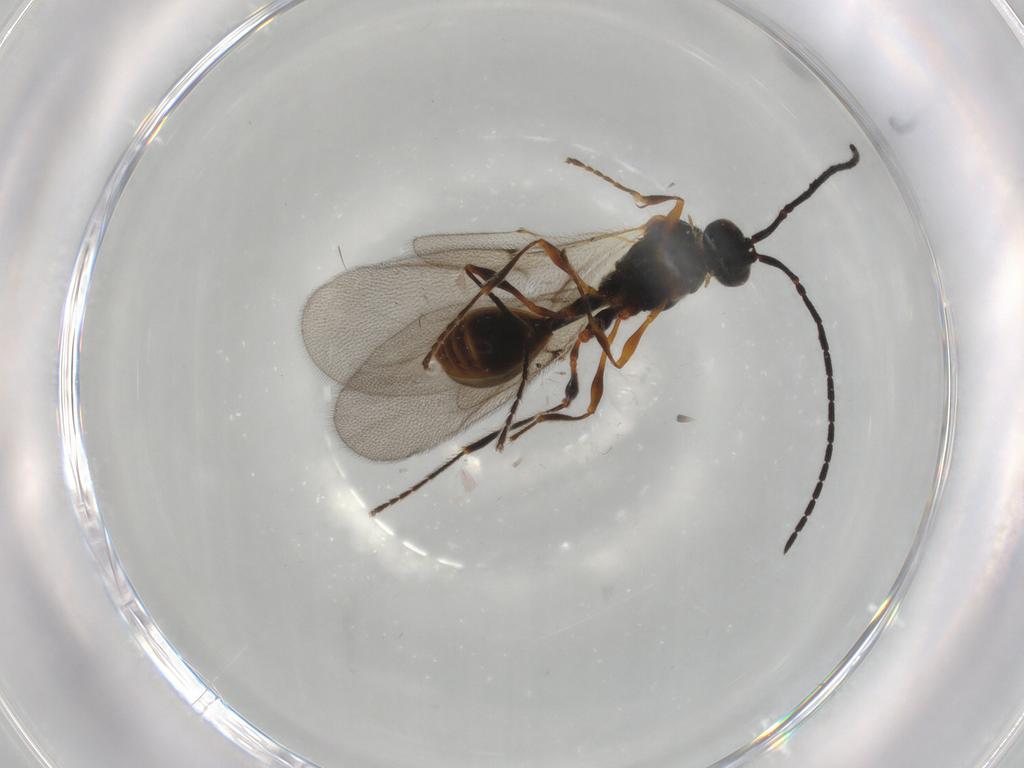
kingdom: Animalia
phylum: Arthropoda
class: Insecta
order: Hymenoptera
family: Diapriidae
